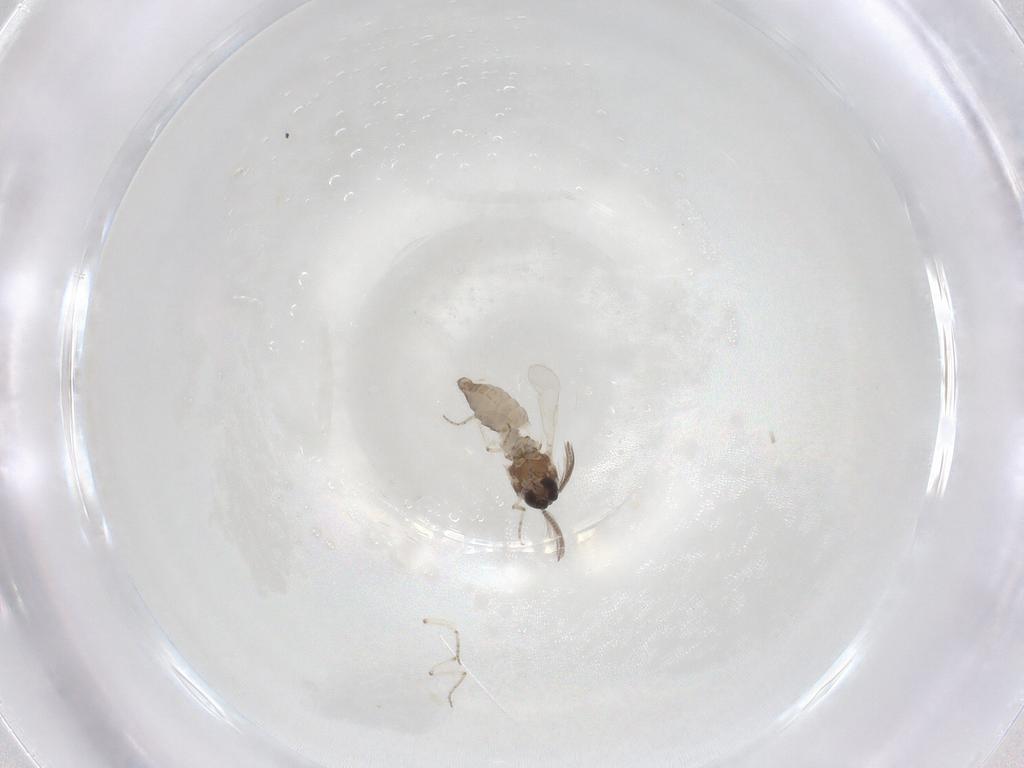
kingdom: Animalia
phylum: Arthropoda
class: Insecta
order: Diptera
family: Ceratopogonidae
